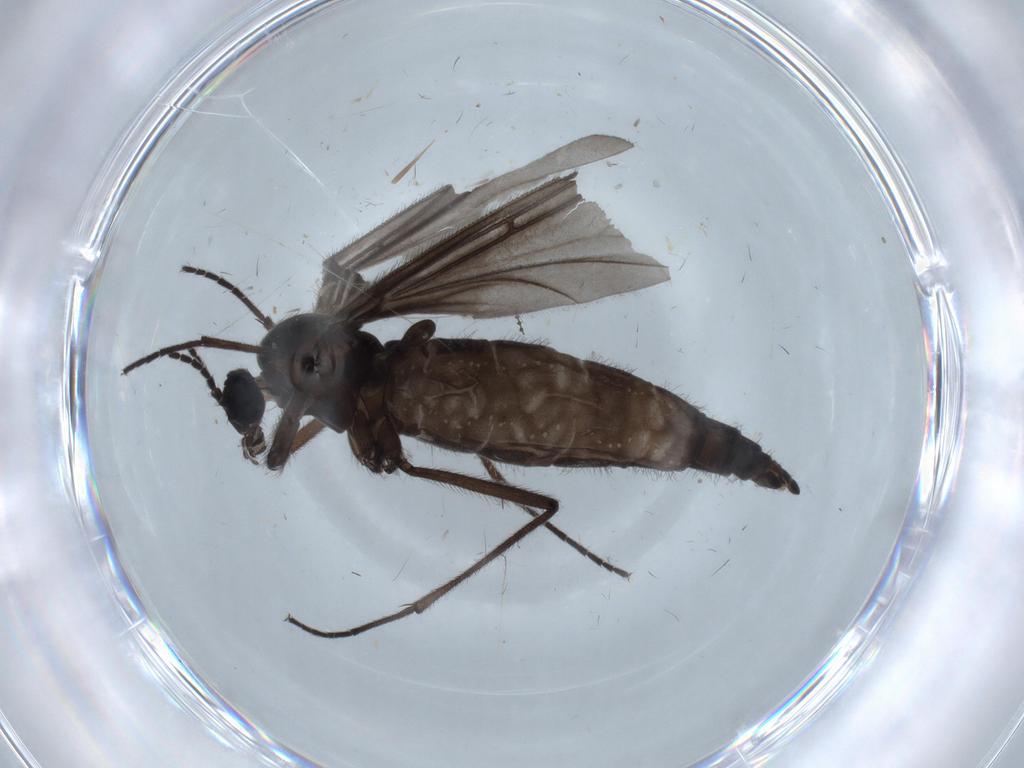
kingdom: Animalia
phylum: Arthropoda
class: Insecta
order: Diptera
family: Sciaridae
